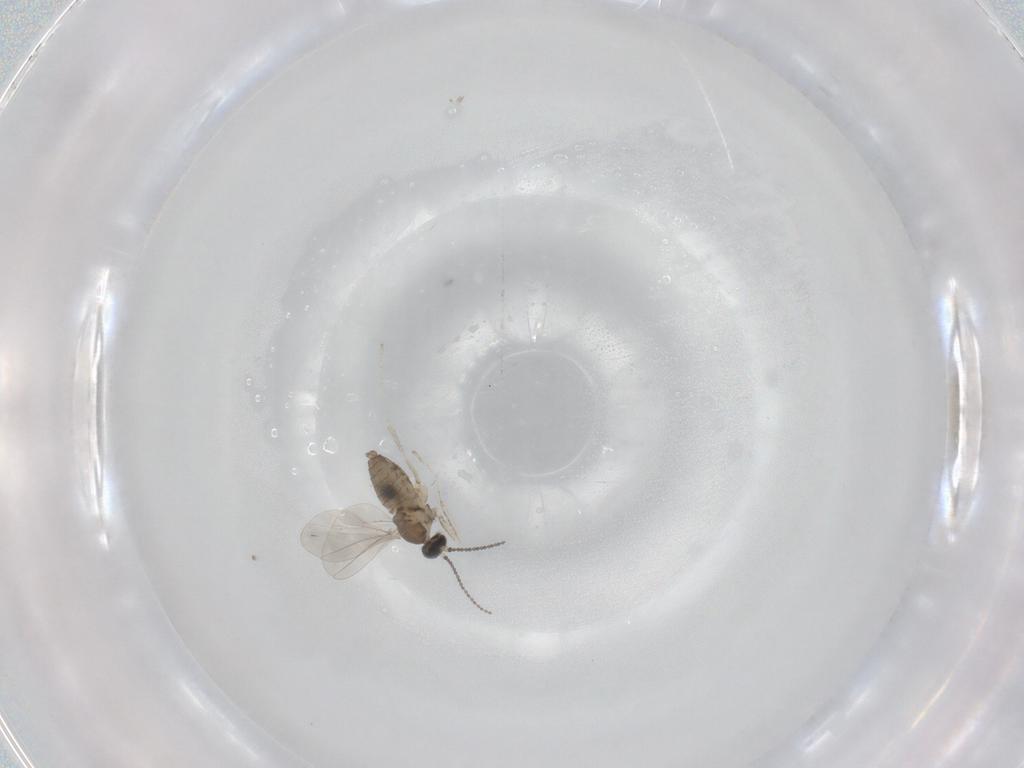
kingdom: Animalia
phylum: Arthropoda
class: Insecta
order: Diptera
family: Cecidomyiidae
